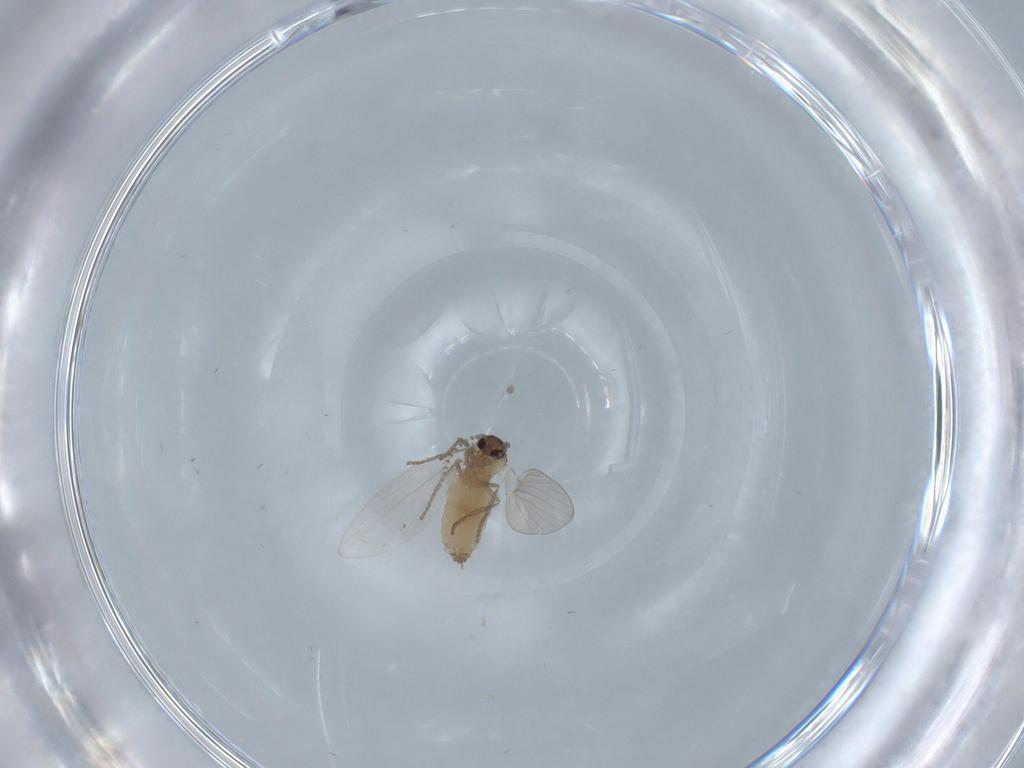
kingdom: Animalia
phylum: Arthropoda
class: Insecta
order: Diptera
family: Psychodidae
